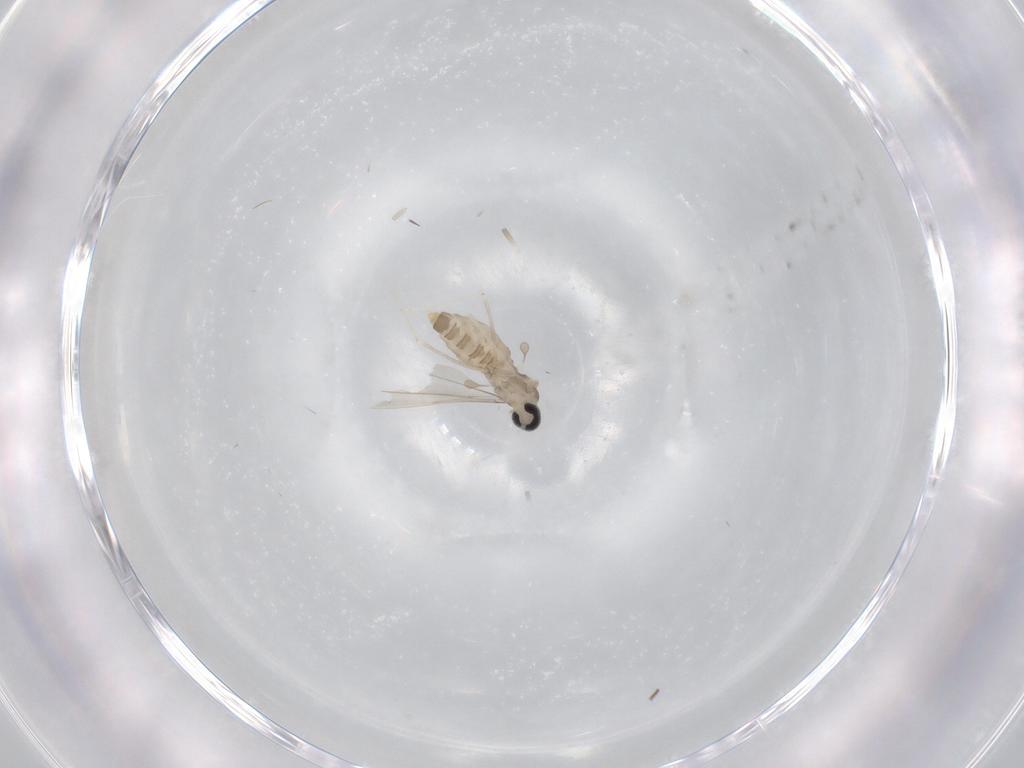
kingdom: Animalia
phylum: Arthropoda
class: Insecta
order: Diptera
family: Cecidomyiidae
